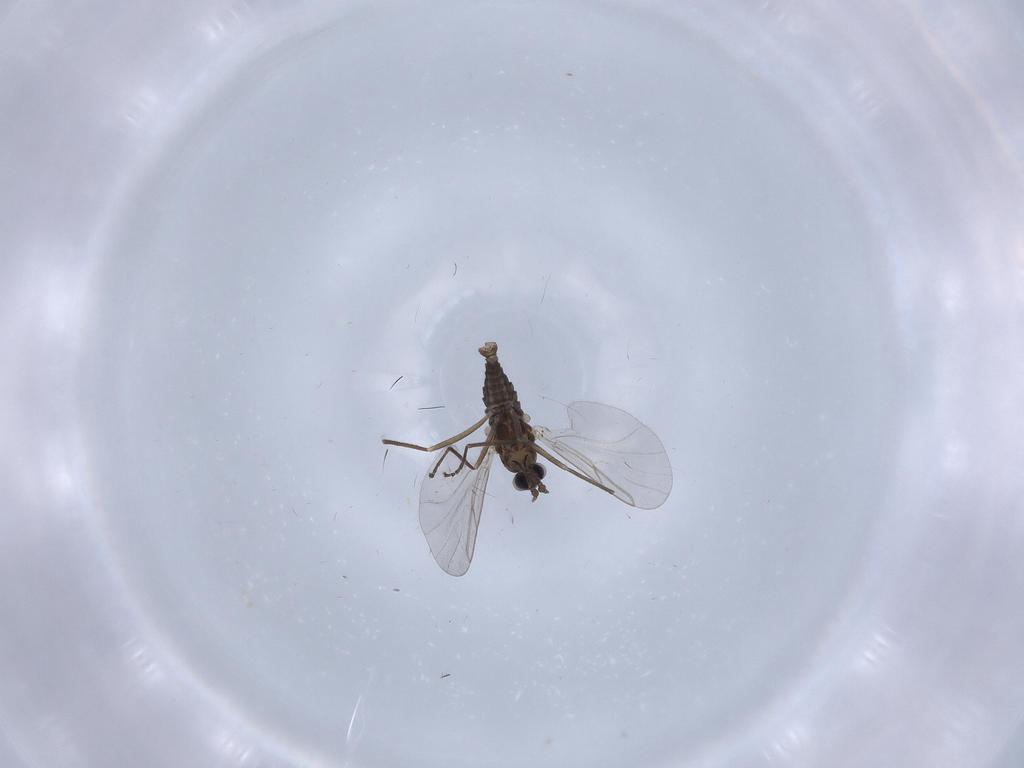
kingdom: Animalia
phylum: Arthropoda
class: Insecta
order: Diptera
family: Cecidomyiidae
